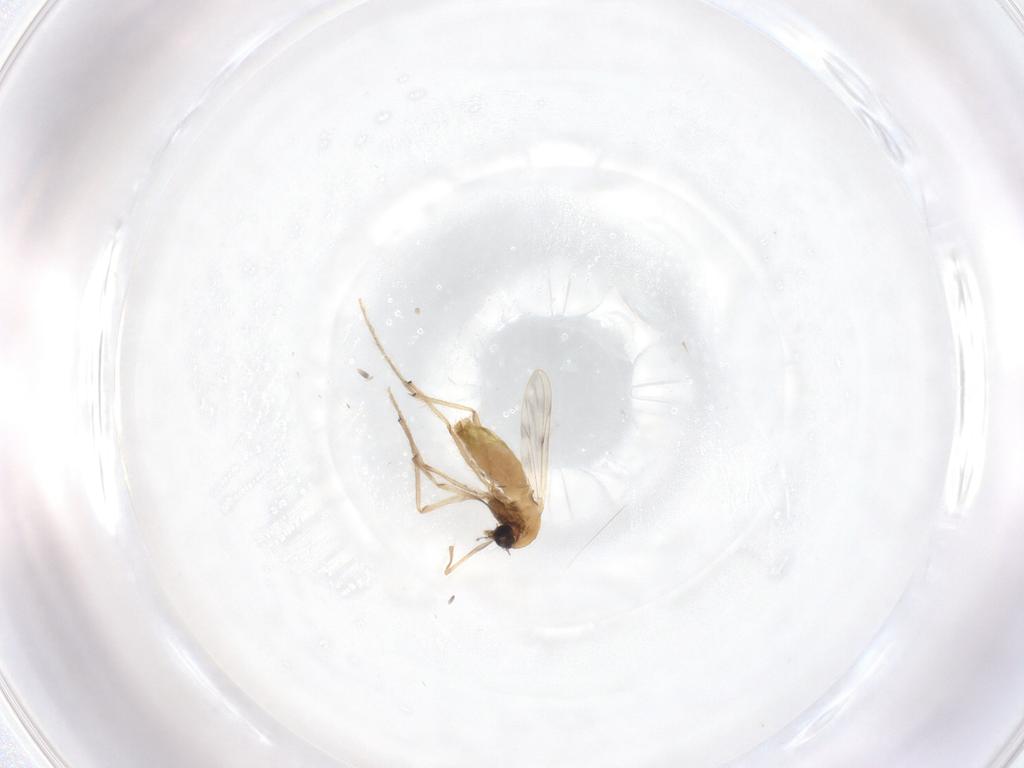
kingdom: Animalia
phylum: Arthropoda
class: Insecta
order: Diptera
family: Chironomidae
